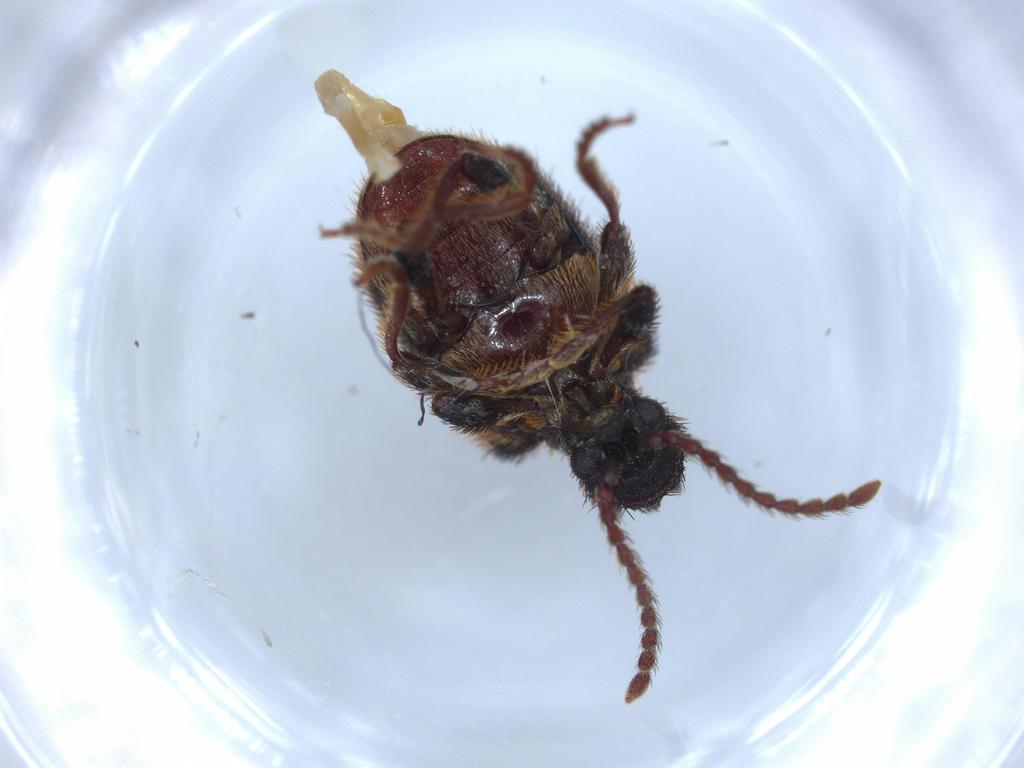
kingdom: Animalia
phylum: Arthropoda
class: Insecta
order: Coleoptera
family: Ptinidae
